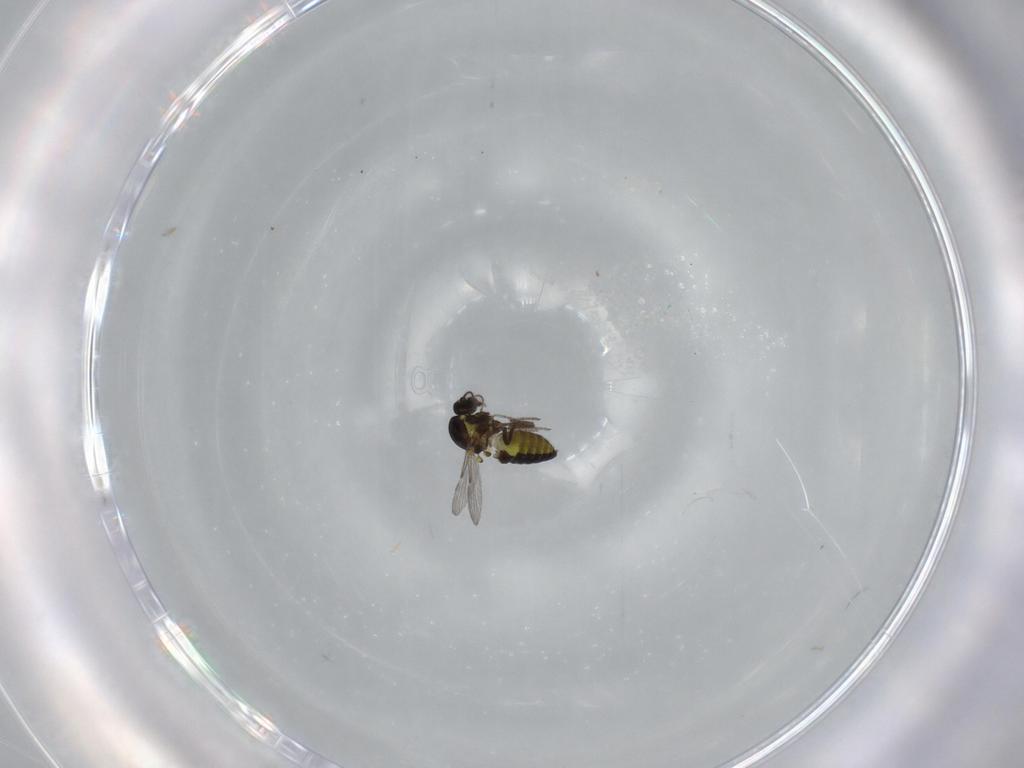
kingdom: Animalia
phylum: Arthropoda
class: Insecta
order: Diptera
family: Ceratopogonidae
